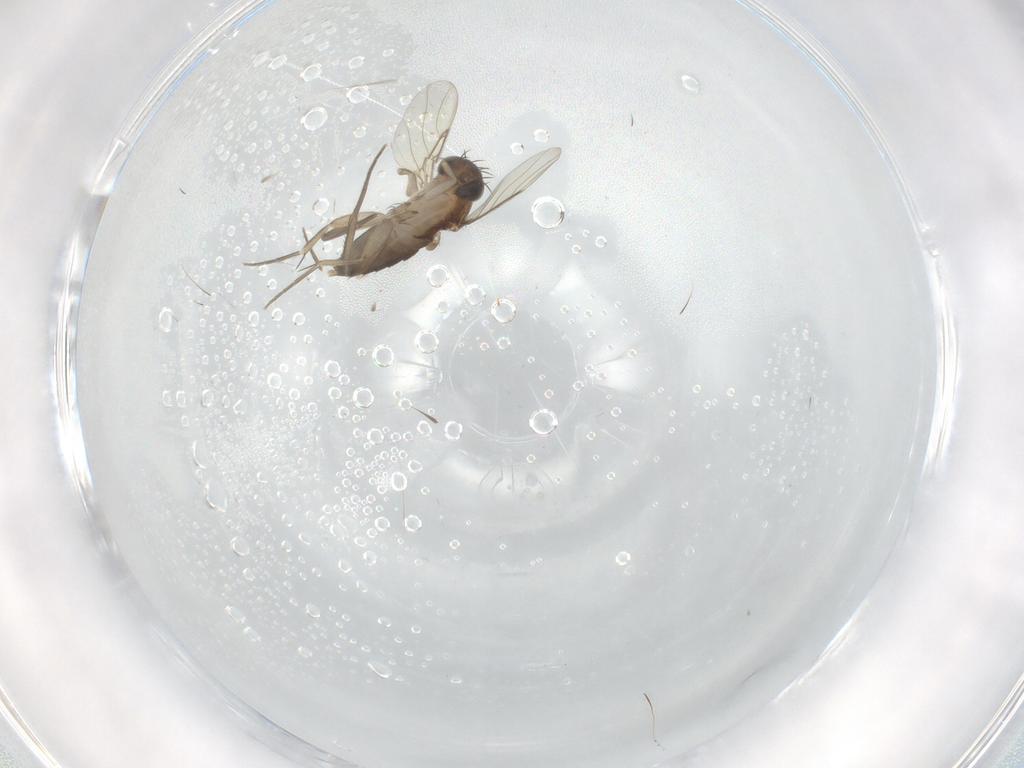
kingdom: Animalia
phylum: Arthropoda
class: Insecta
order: Diptera
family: Phoridae
